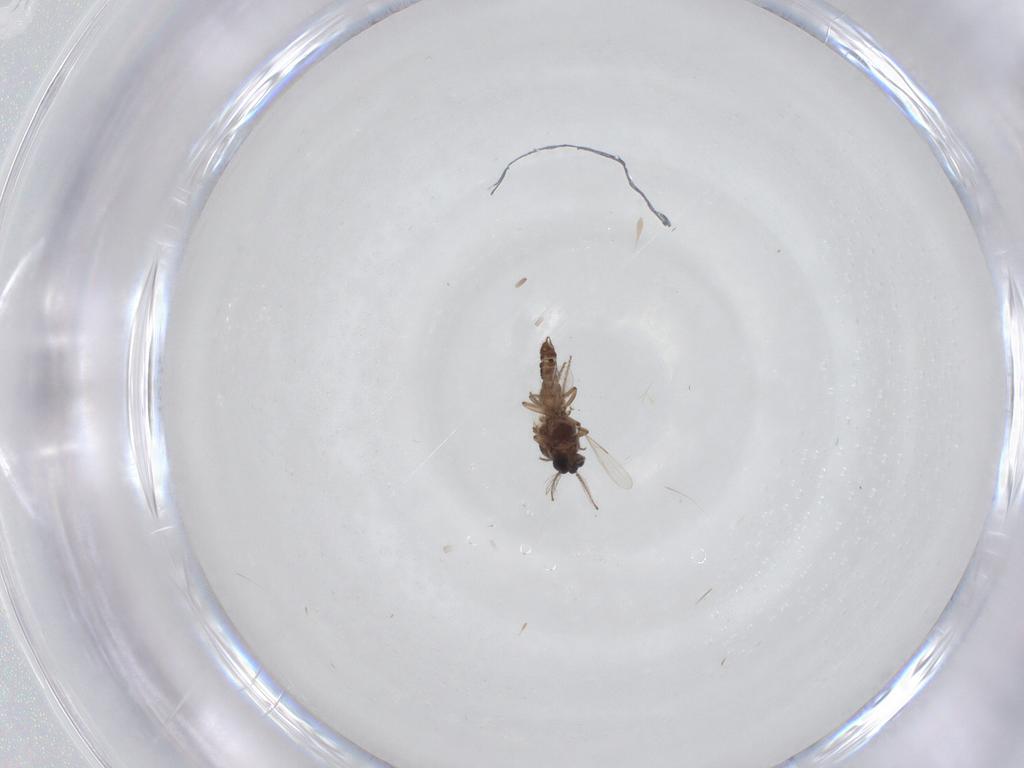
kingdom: Animalia
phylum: Arthropoda
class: Insecta
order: Diptera
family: Ceratopogonidae
